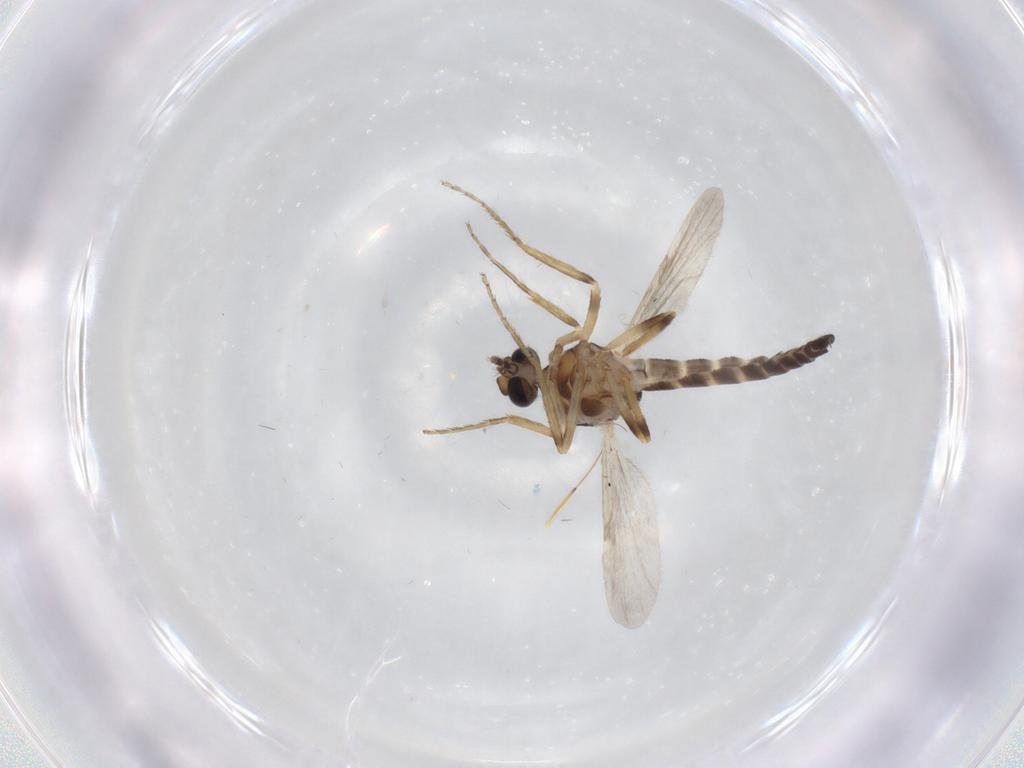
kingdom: Animalia
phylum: Arthropoda
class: Insecta
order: Diptera
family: Ceratopogonidae
